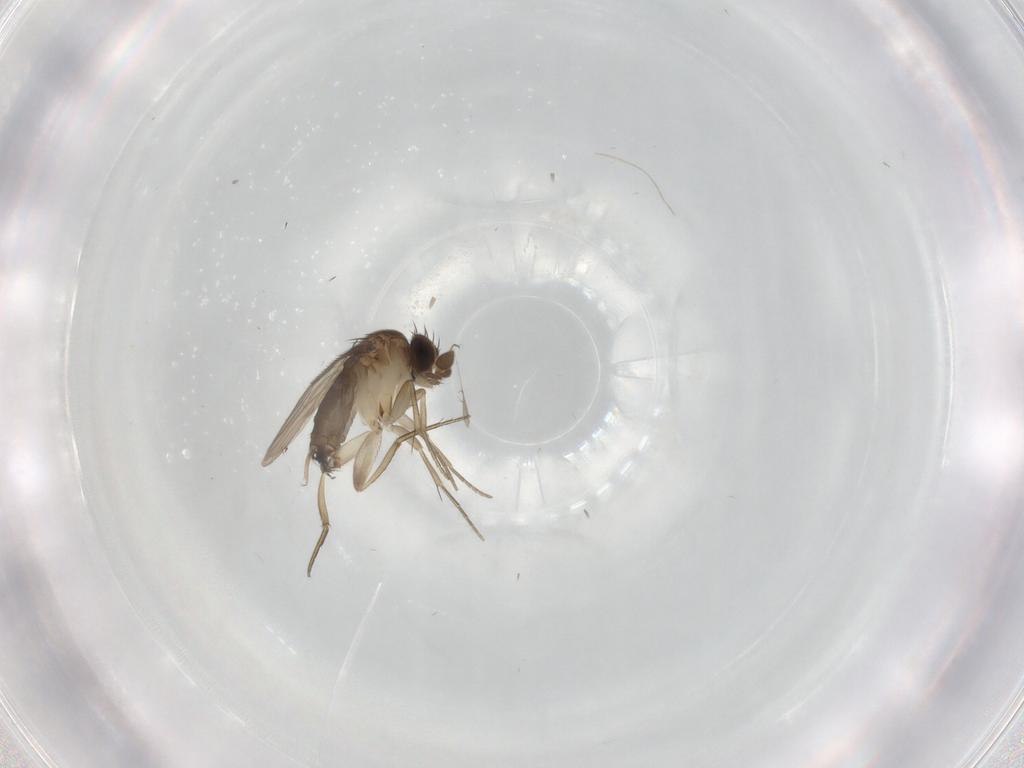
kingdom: Animalia
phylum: Arthropoda
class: Insecta
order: Diptera
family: Phoridae
